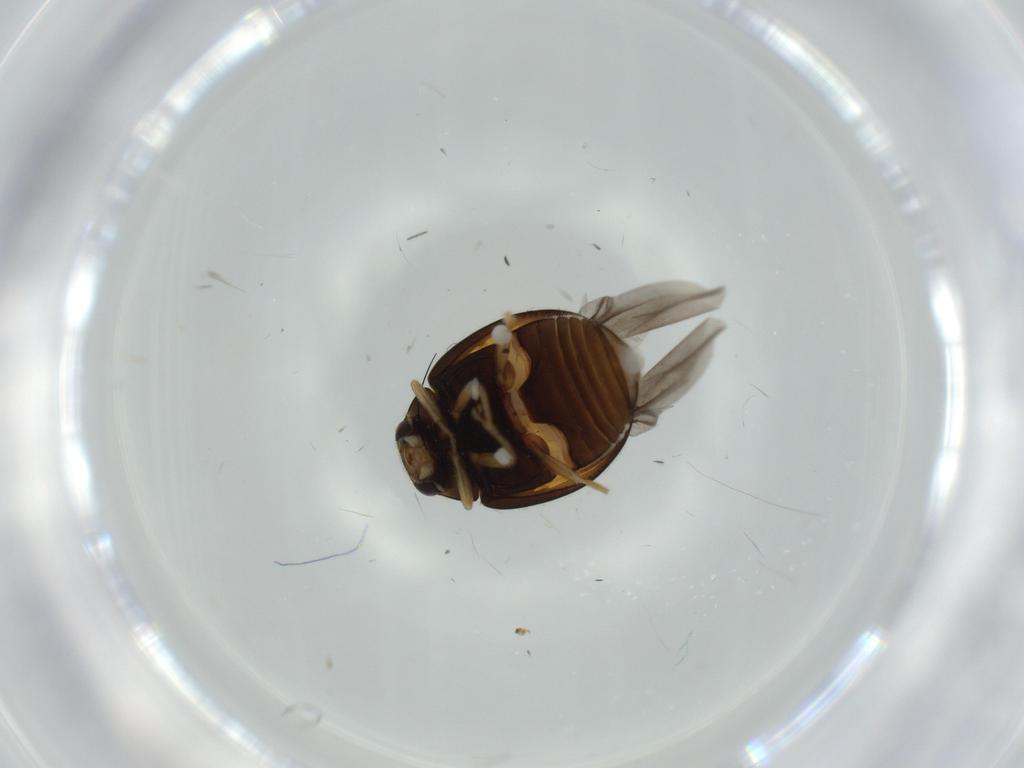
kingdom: Animalia
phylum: Arthropoda
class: Insecta
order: Coleoptera
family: Coccinellidae
